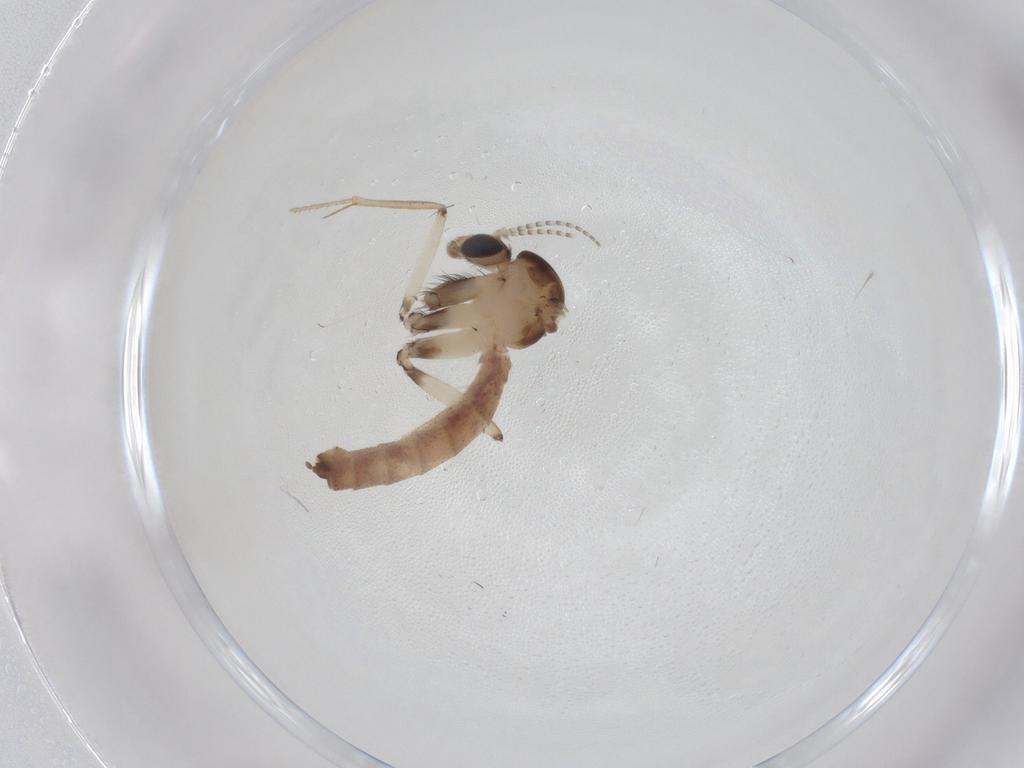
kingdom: Animalia
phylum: Arthropoda
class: Insecta
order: Diptera
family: Mycetophilidae
